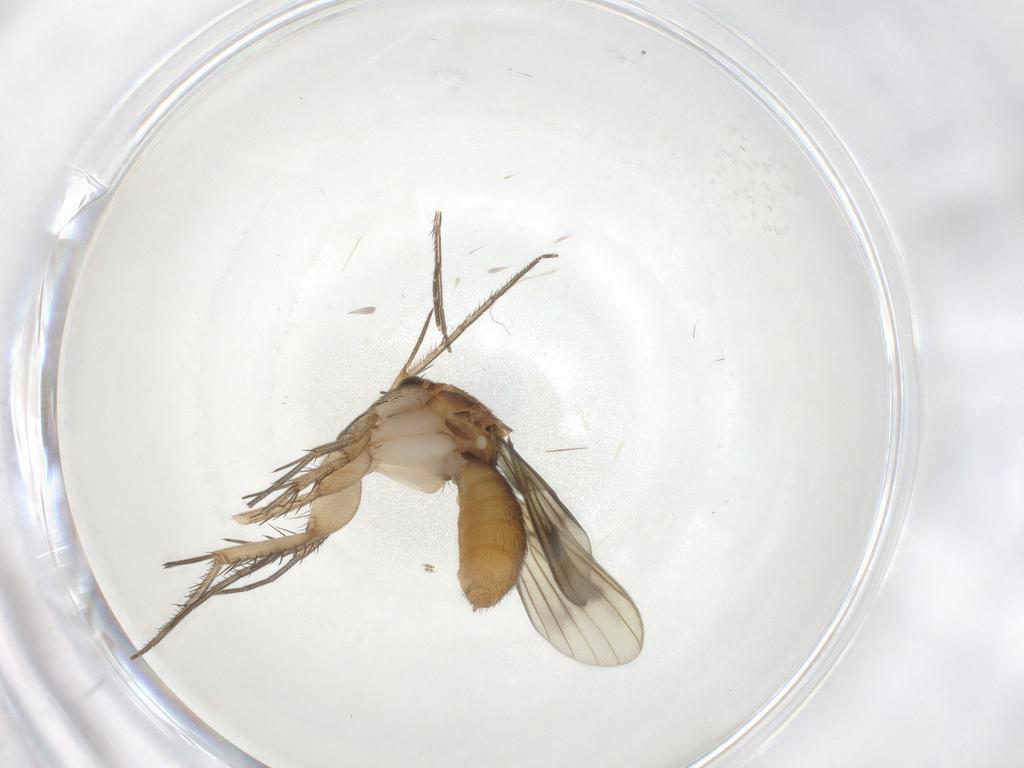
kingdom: Animalia
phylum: Arthropoda
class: Insecta
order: Diptera
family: Mycetophilidae
